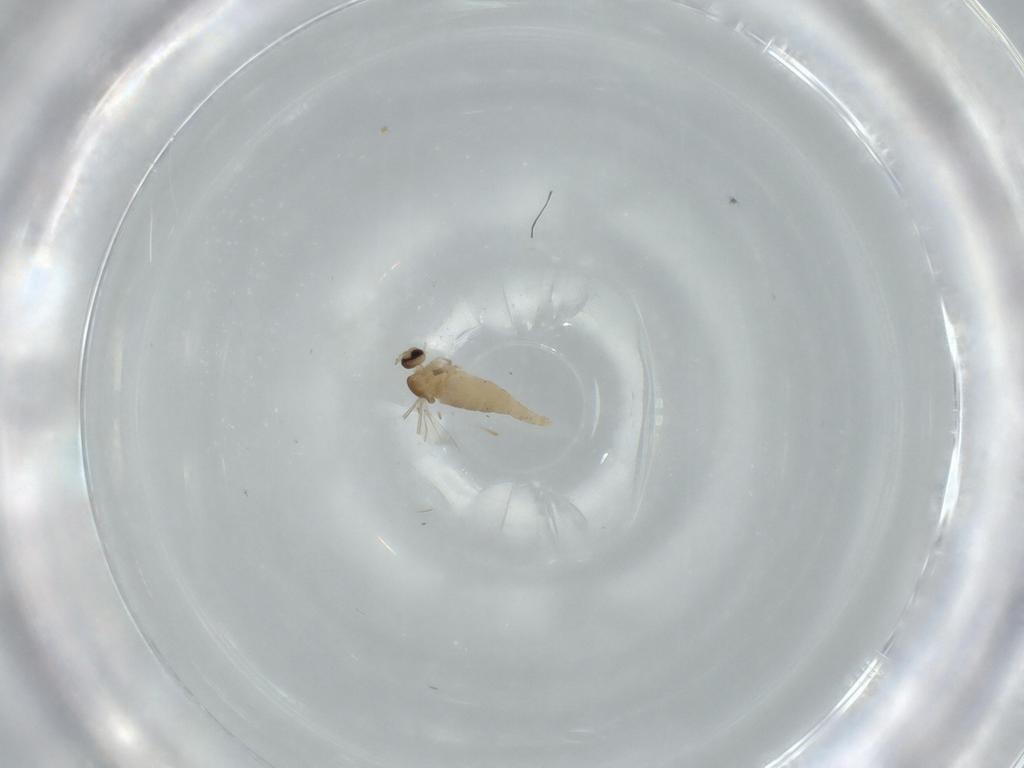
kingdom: Animalia
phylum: Arthropoda
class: Insecta
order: Diptera
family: Cecidomyiidae
